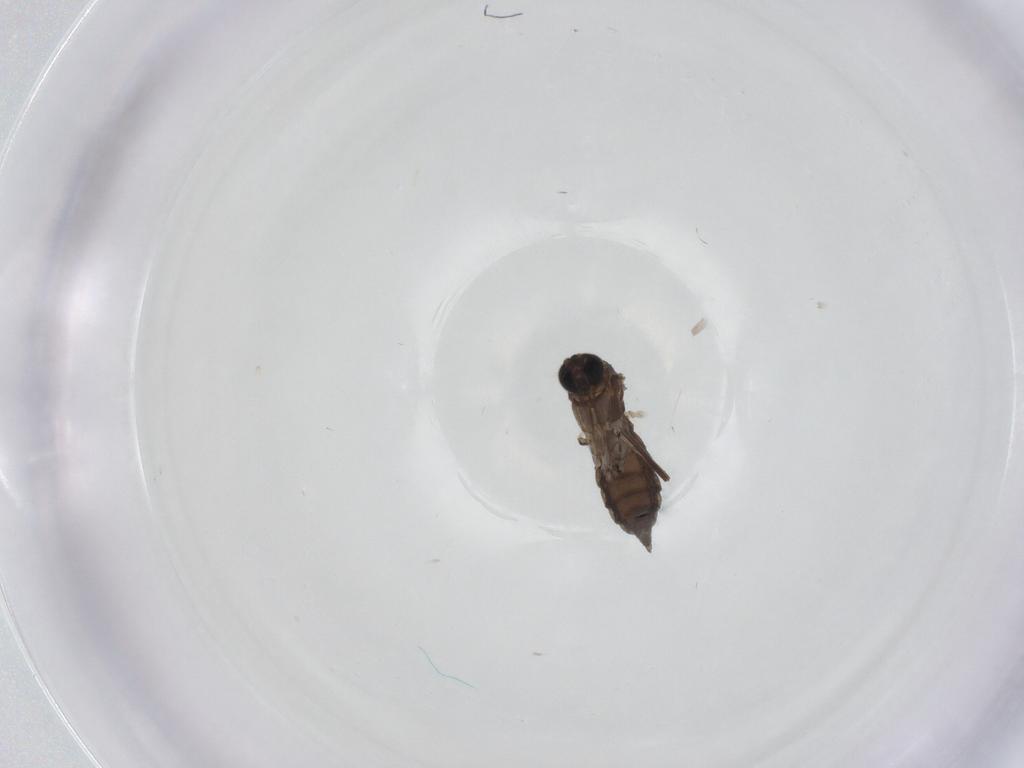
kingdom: Animalia
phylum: Arthropoda
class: Insecta
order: Diptera
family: Sciaridae
